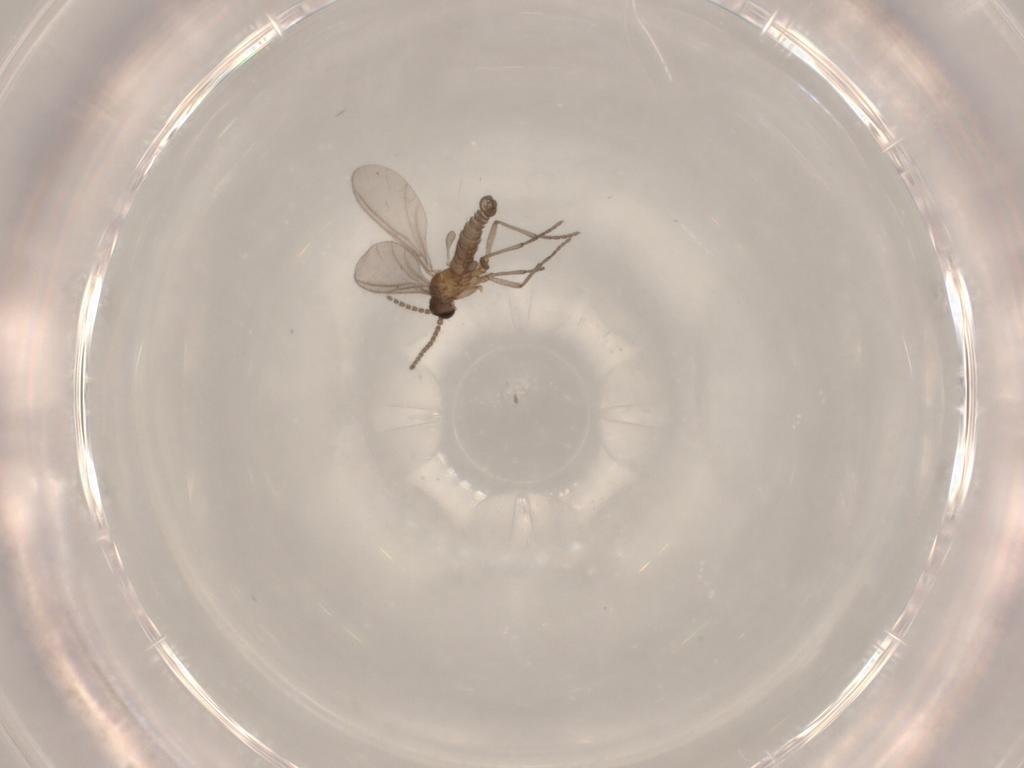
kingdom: Animalia
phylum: Arthropoda
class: Insecta
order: Diptera
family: Sciaridae
